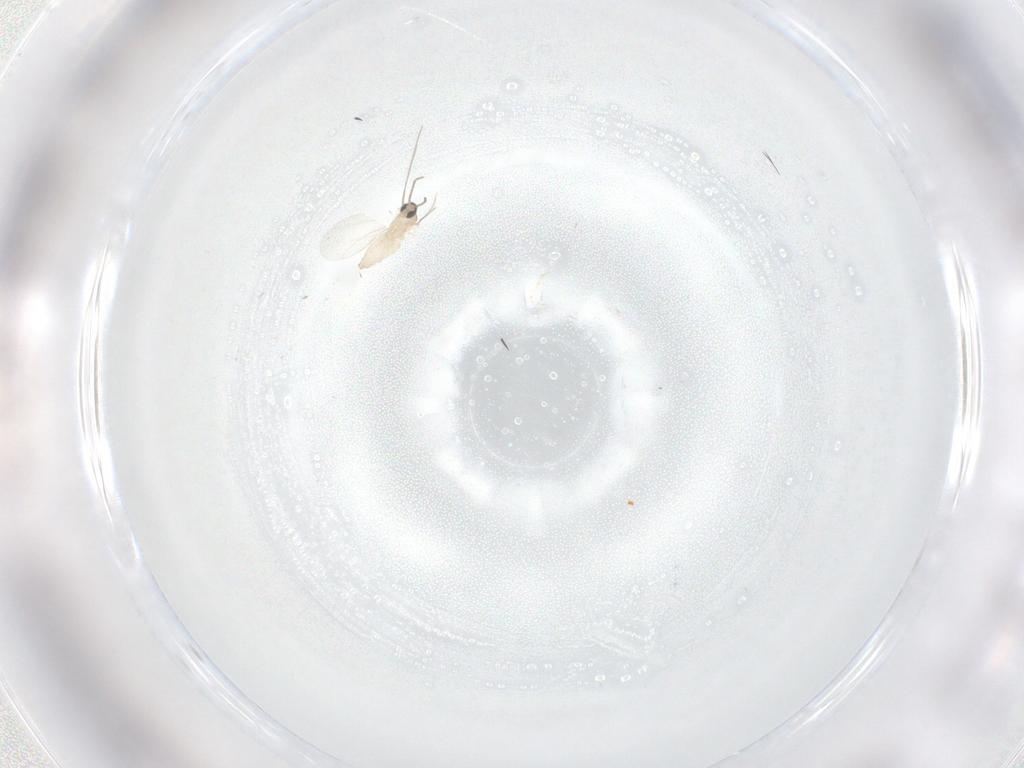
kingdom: Animalia
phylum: Arthropoda
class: Insecta
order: Diptera
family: Cecidomyiidae
